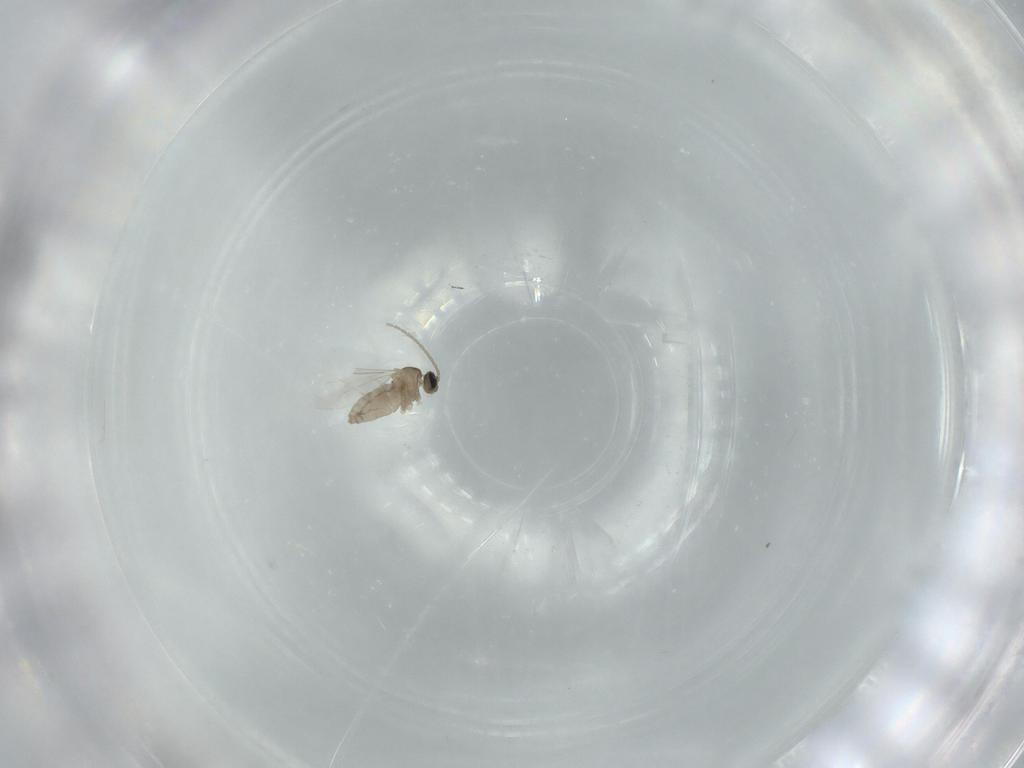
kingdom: Animalia
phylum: Arthropoda
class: Insecta
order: Diptera
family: Cecidomyiidae
